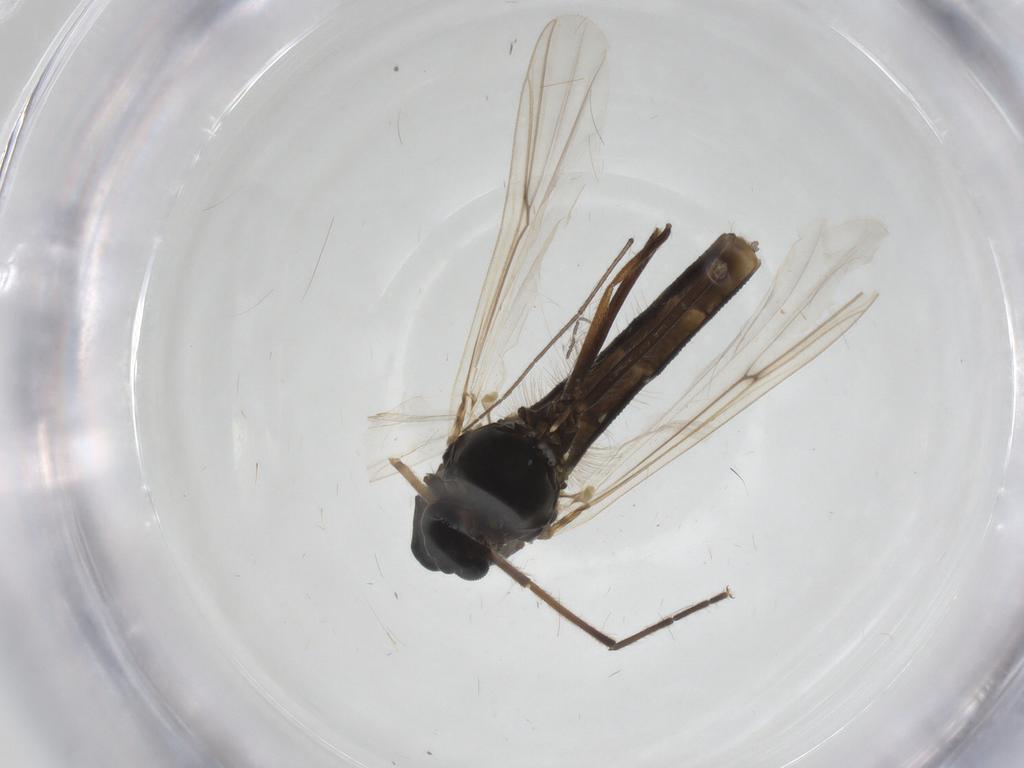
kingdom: Animalia
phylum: Arthropoda
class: Insecta
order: Diptera
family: Chironomidae
